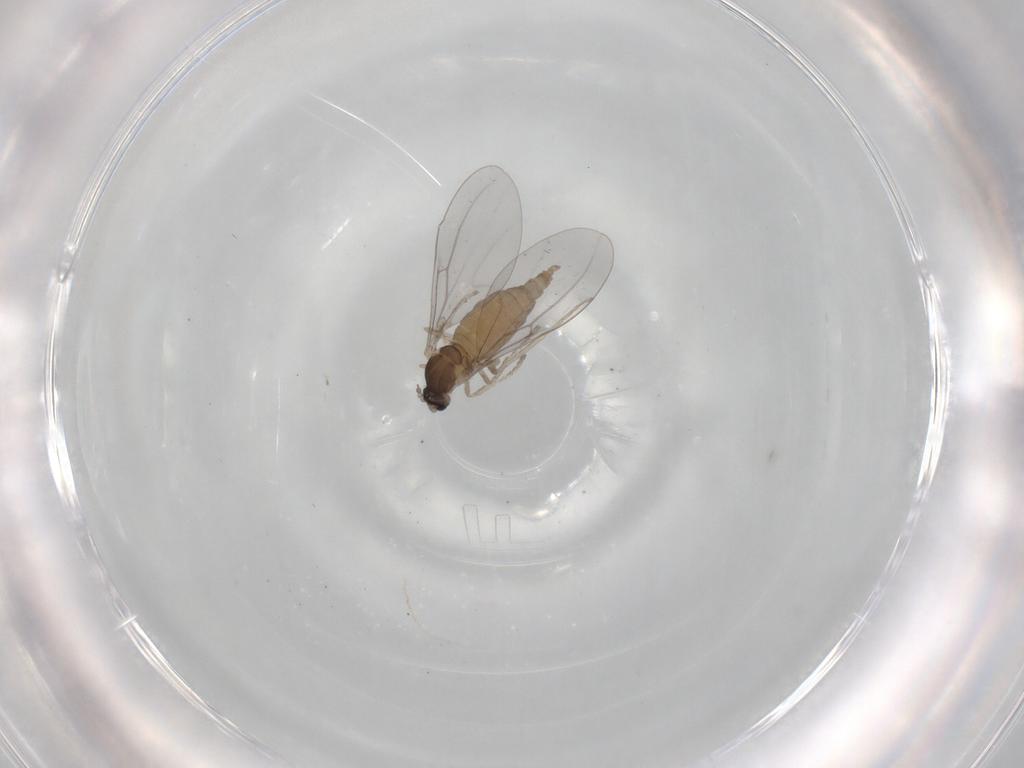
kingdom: Animalia
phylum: Arthropoda
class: Insecta
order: Diptera
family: Cecidomyiidae
